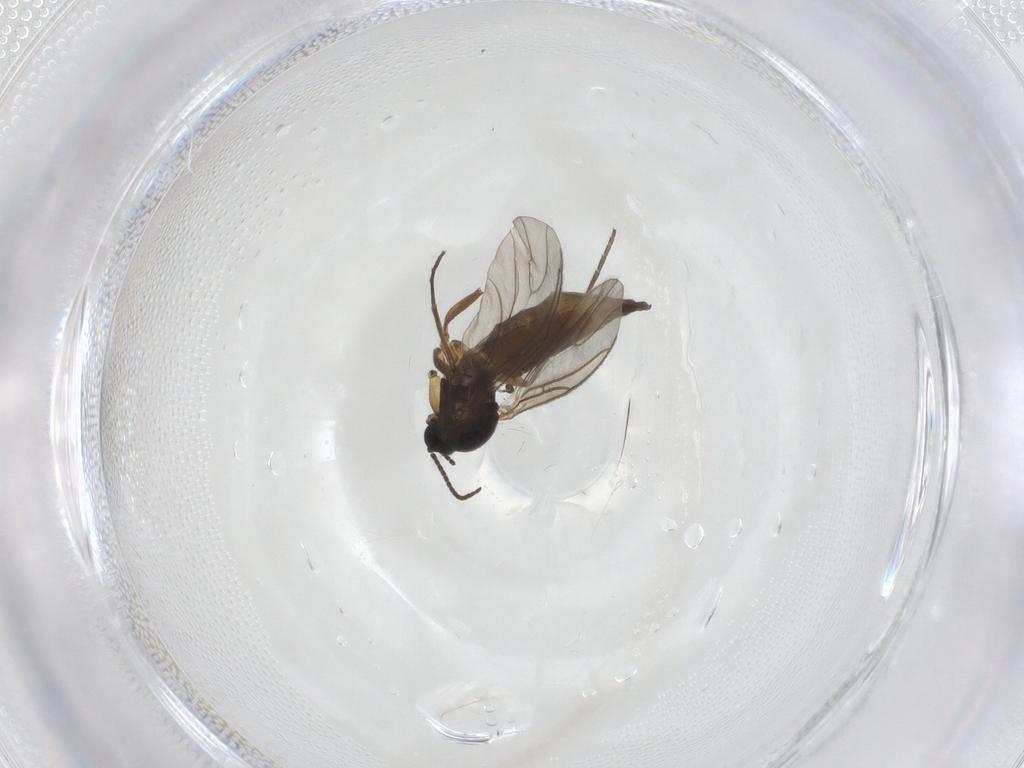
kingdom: Animalia
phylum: Arthropoda
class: Insecta
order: Diptera
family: Sciaridae
